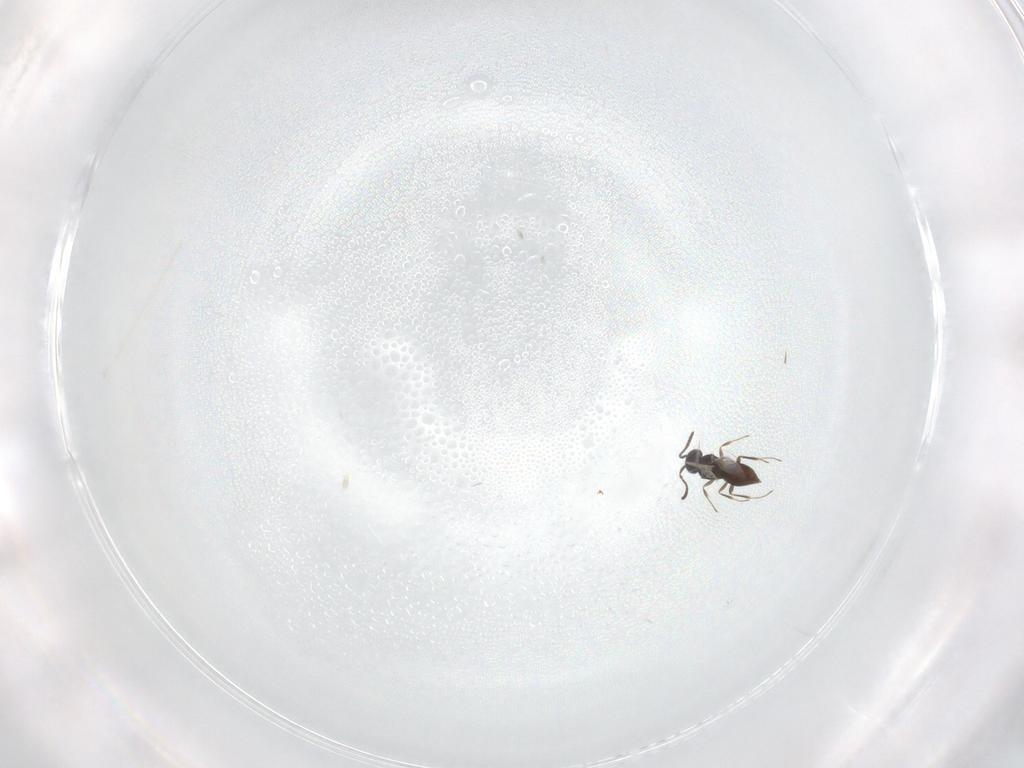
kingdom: Animalia
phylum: Arthropoda
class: Insecta
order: Hymenoptera
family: Scelionidae
